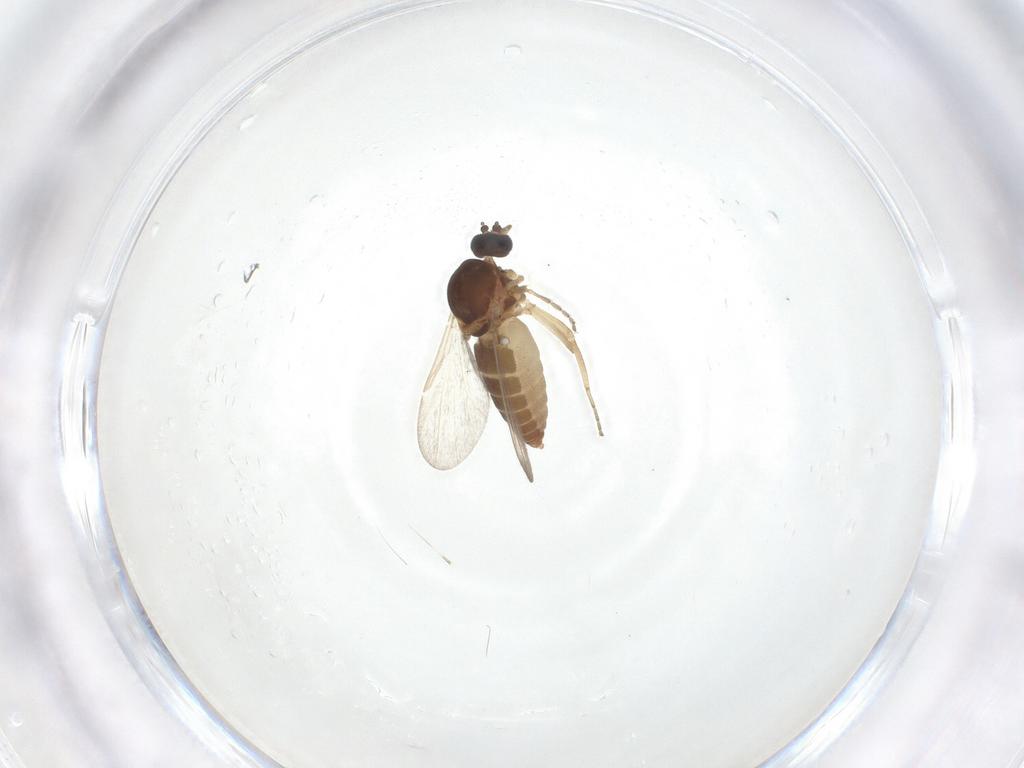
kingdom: Animalia
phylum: Arthropoda
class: Insecta
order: Diptera
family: Ceratopogonidae
